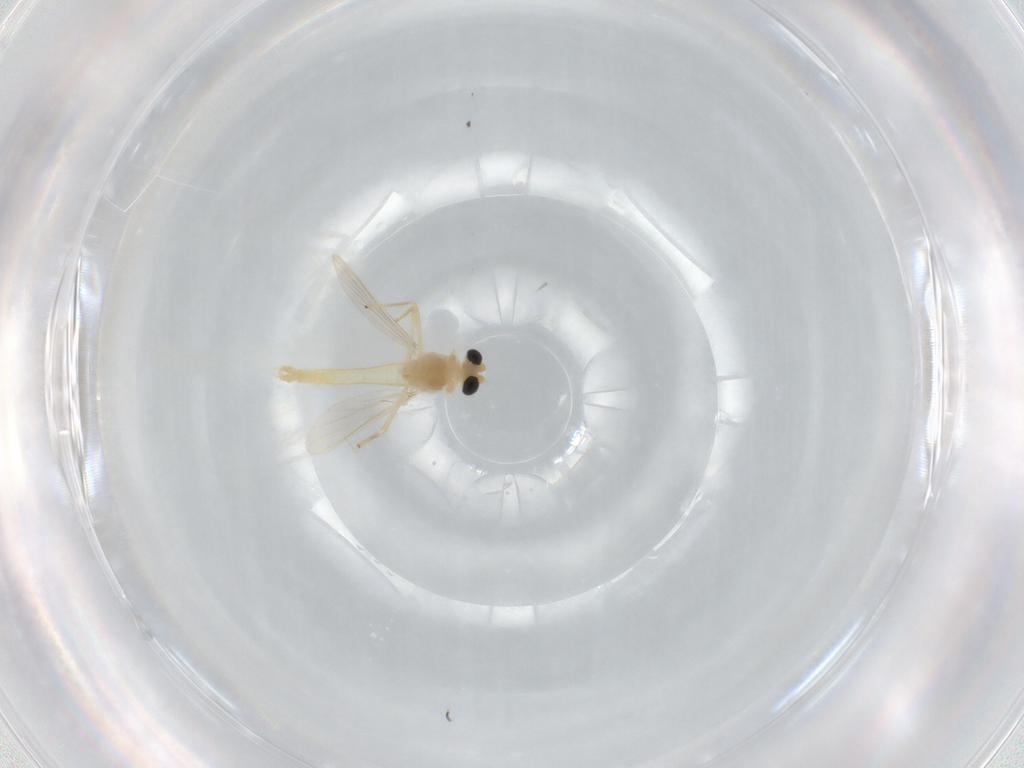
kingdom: Animalia
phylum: Arthropoda
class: Insecta
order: Diptera
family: Chironomidae
